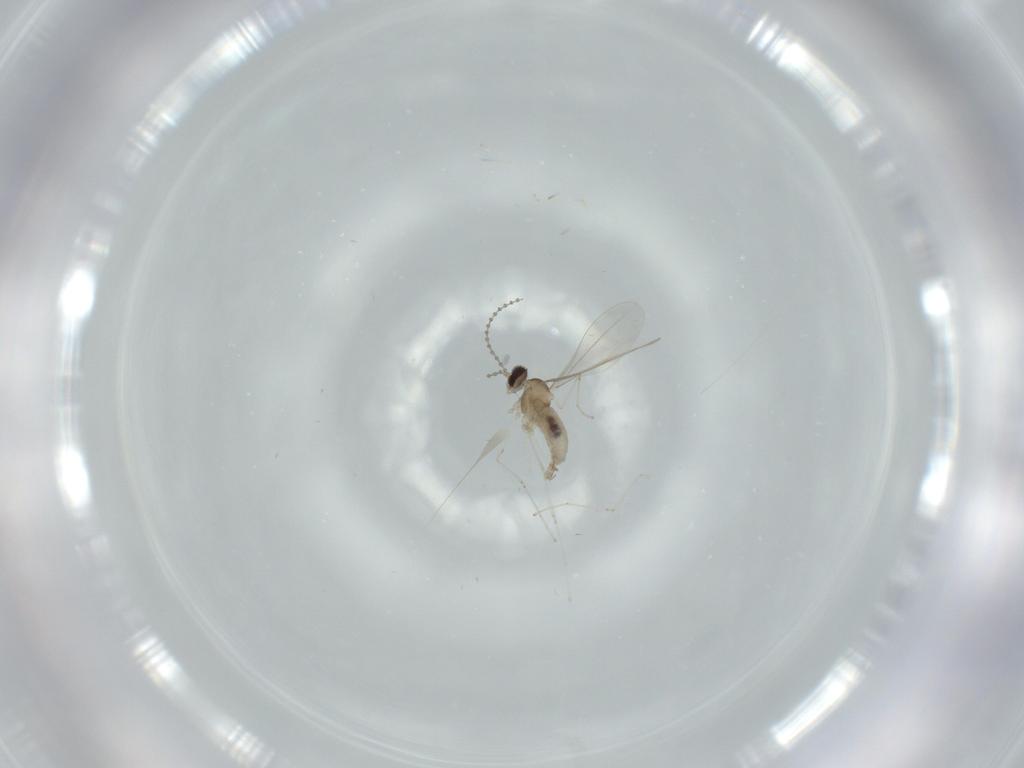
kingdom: Animalia
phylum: Arthropoda
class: Insecta
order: Diptera
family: Cecidomyiidae
